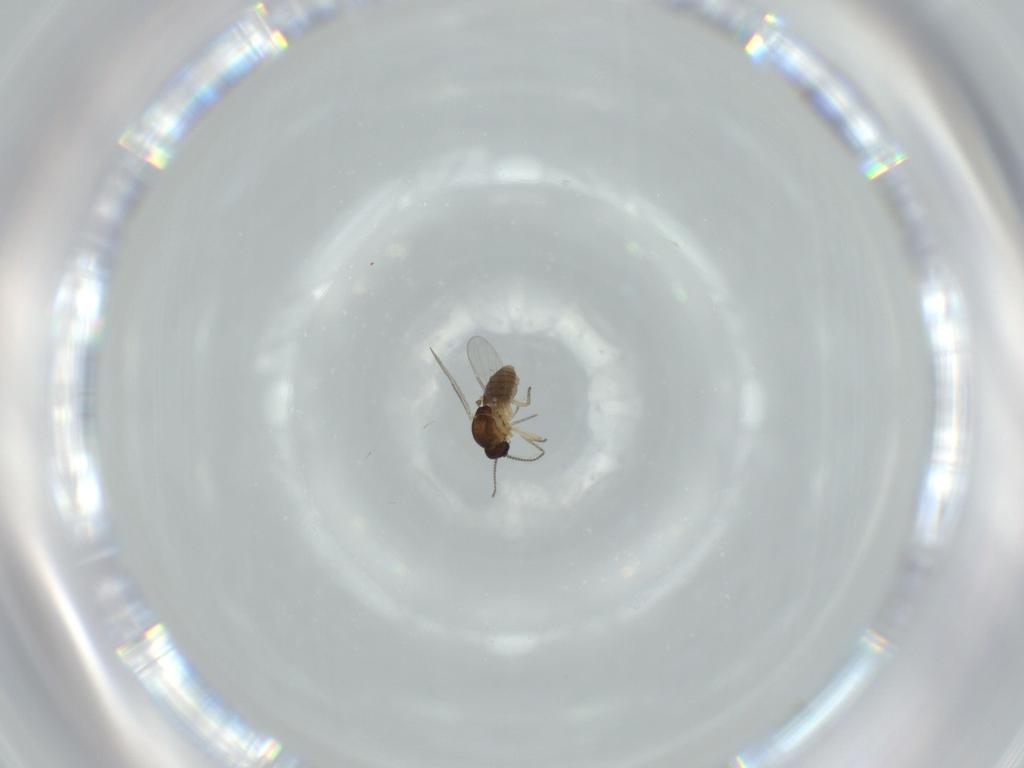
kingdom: Animalia
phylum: Arthropoda
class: Insecta
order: Diptera
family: Ceratopogonidae
